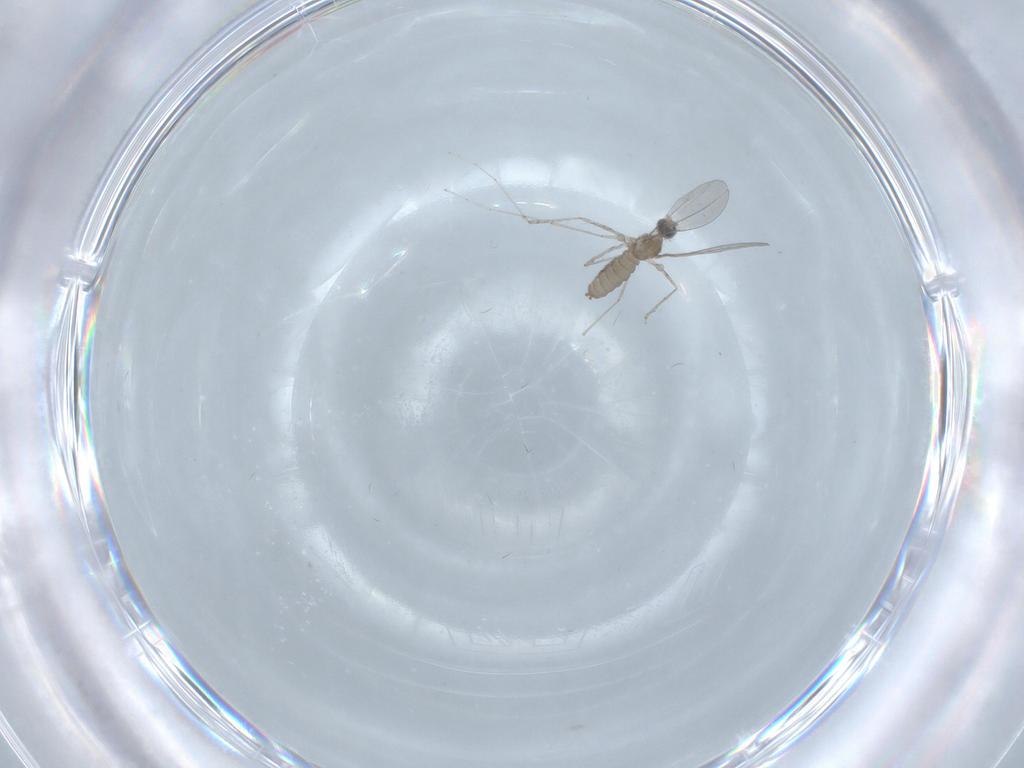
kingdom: Animalia
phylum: Arthropoda
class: Insecta
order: Diptera
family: Cecidomyiidae
